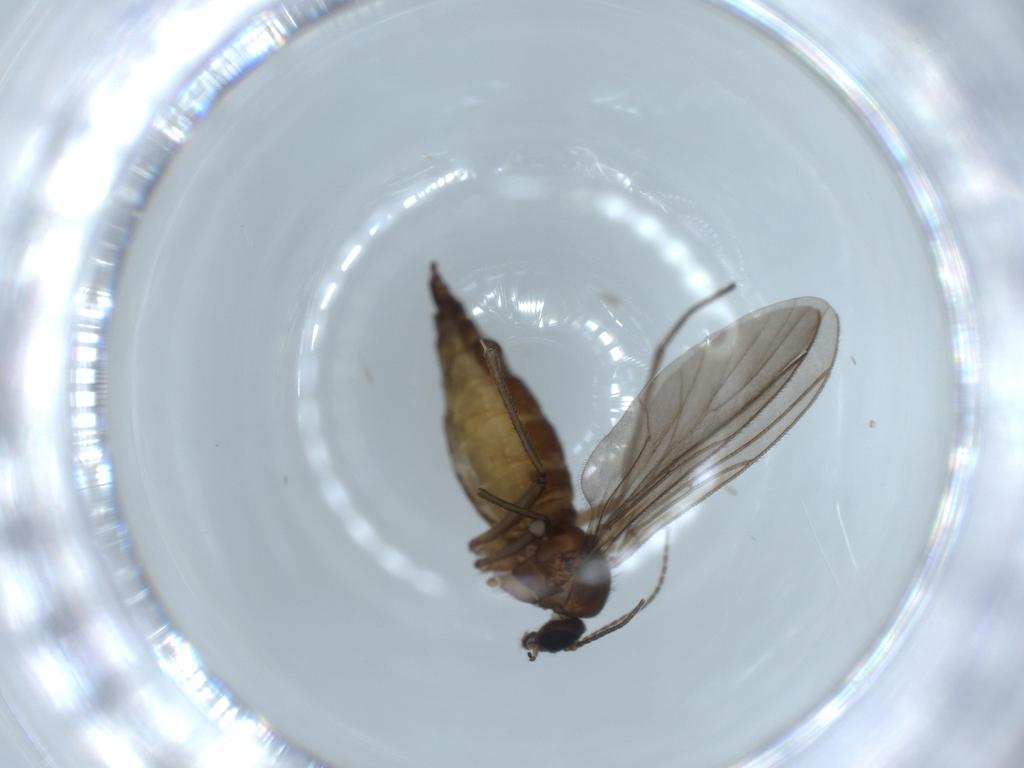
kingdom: Animalia
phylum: Arthropoda
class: Insecta
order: Diptera
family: Sciaridae
